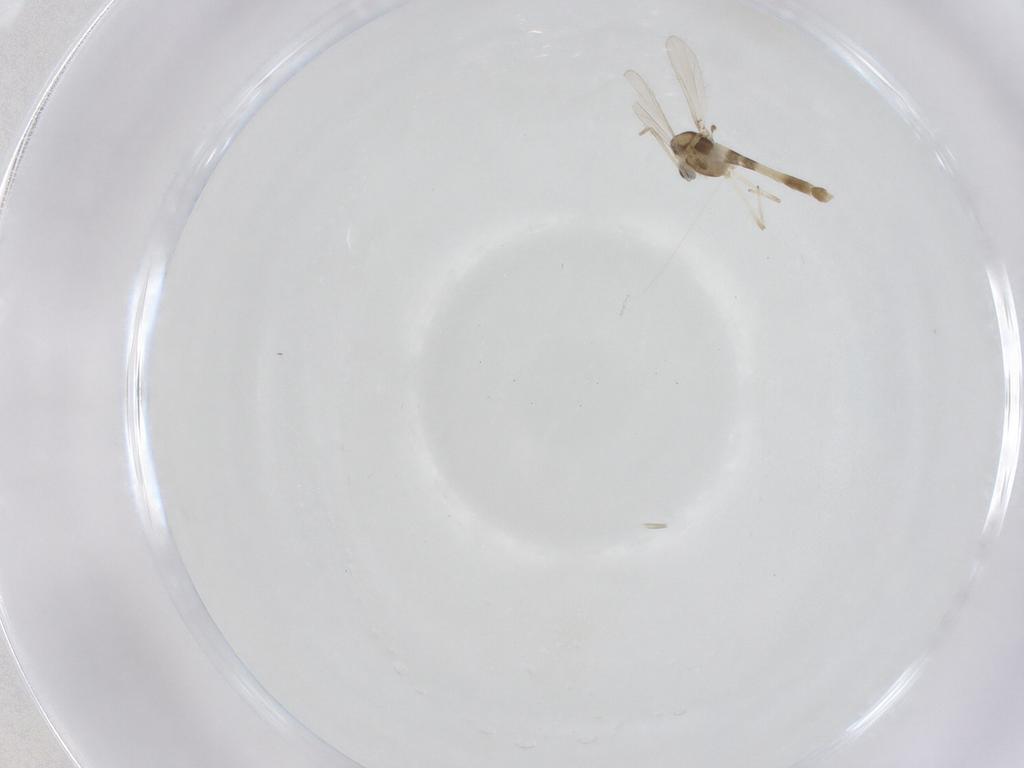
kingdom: Animalia
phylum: Arthropoda
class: Insecta
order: Diptera
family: Chironomidae
